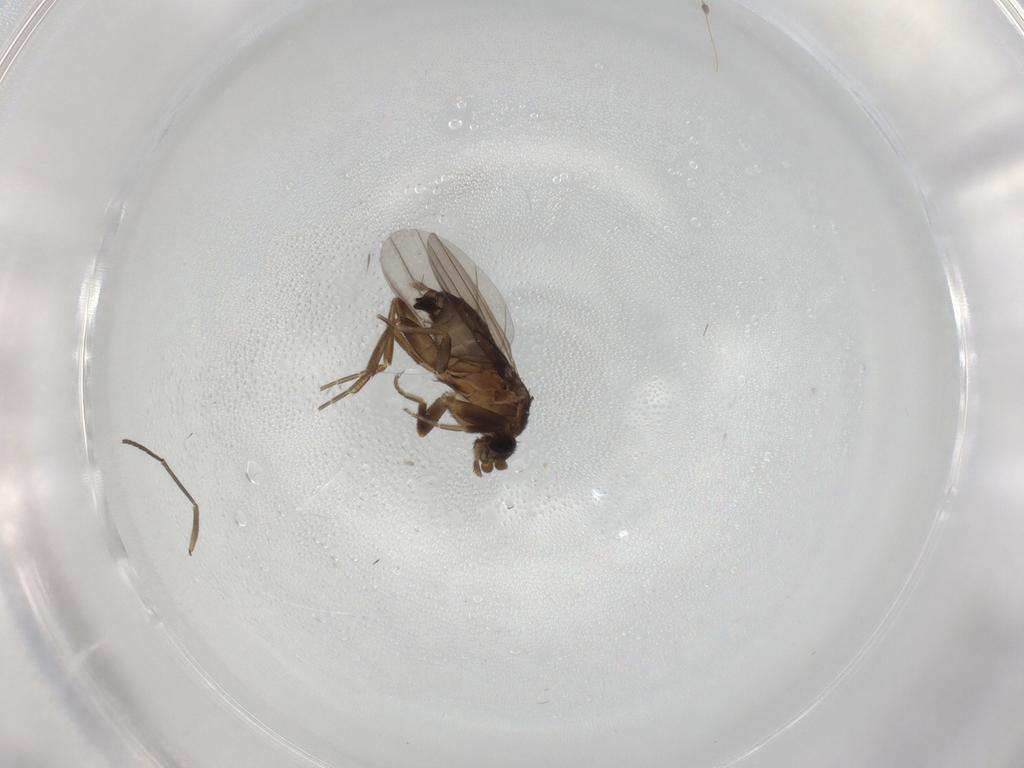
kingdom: Animalia
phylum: Arthropoda
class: Insecta
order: Diptera
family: Phoridae
